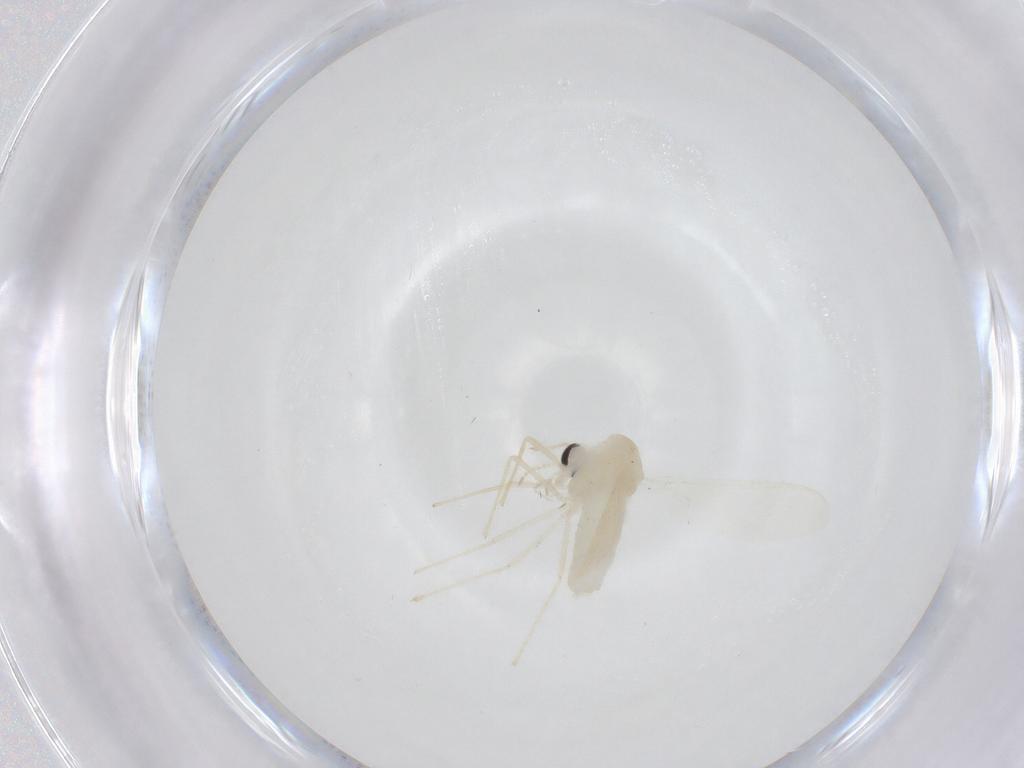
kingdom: Animalia
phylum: Arthropoda
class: Insecta
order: Diptera
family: Chironomidae
